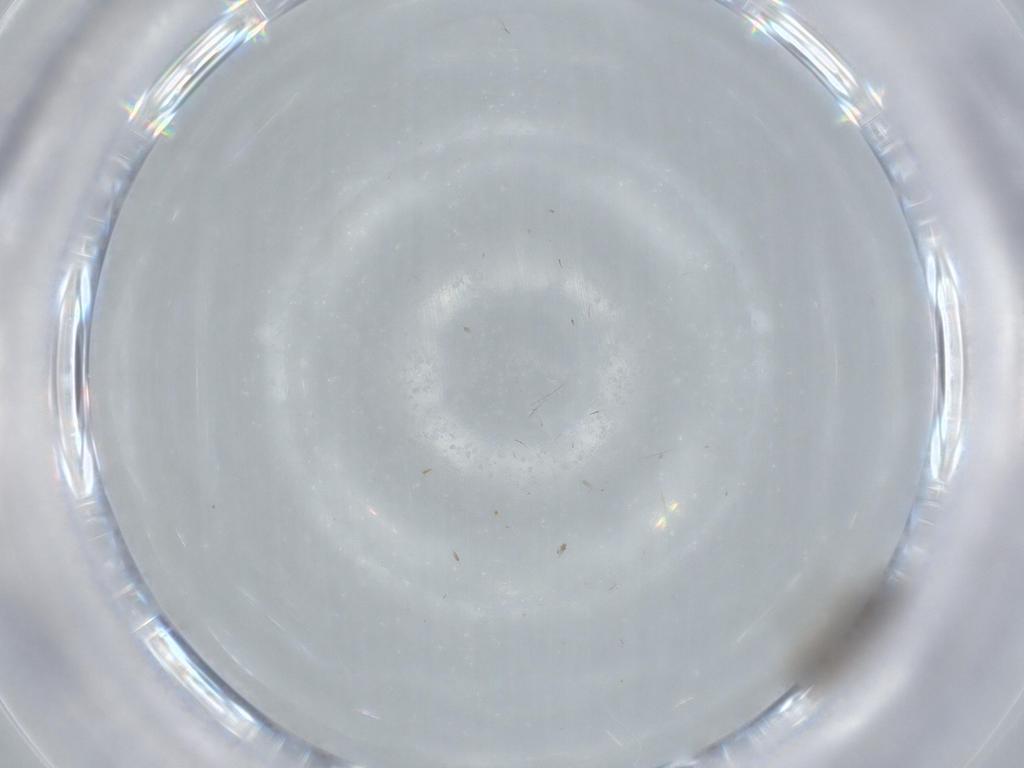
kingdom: Animalia
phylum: Arthropoda
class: Insecta
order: Diptera
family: Chironomidae
